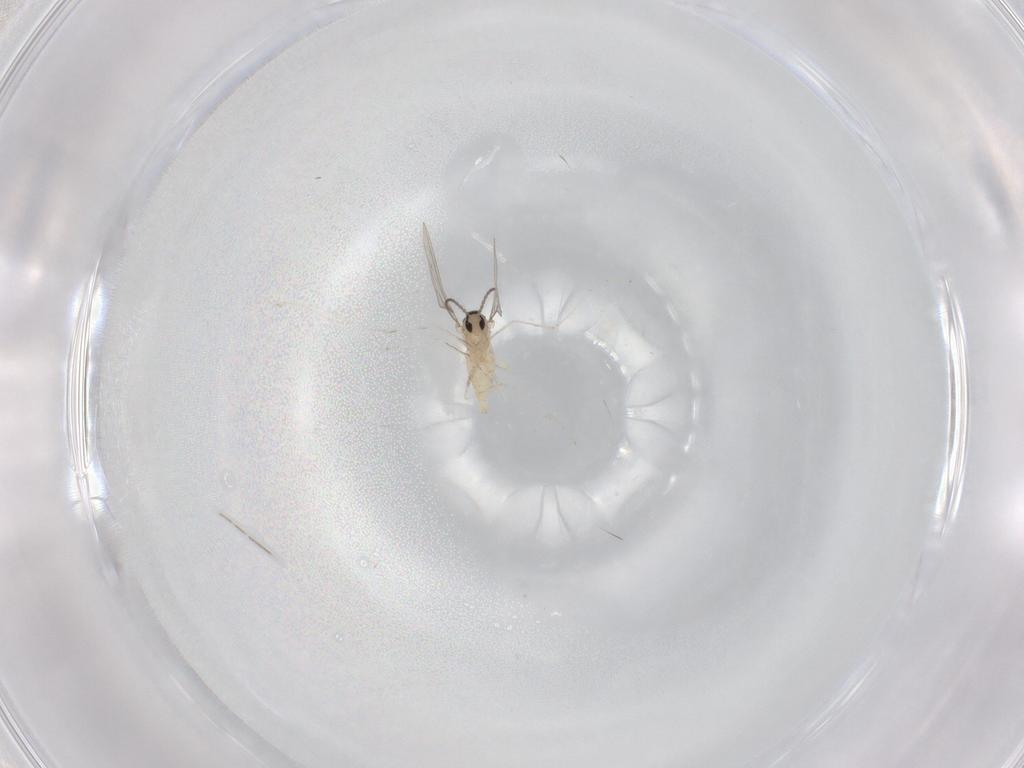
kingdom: Animalia
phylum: Arthropoda
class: Insecta
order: Diptera
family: Cecidomyiidae
